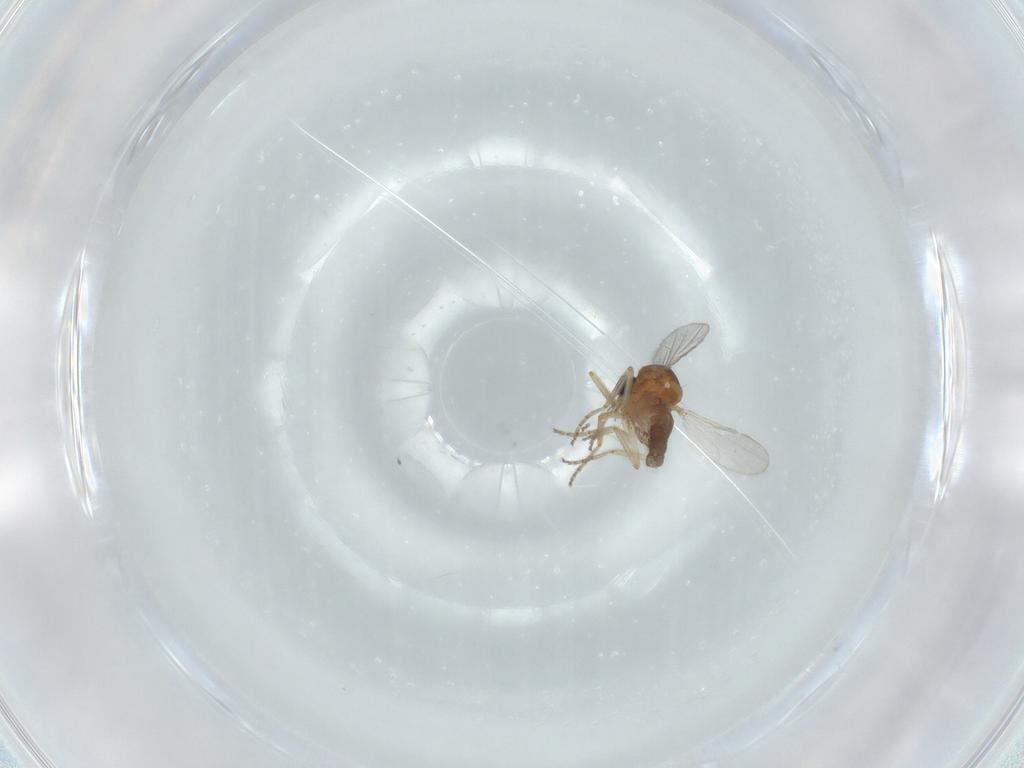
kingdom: Animalia
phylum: Arthropoda
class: Insecta
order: Diptera
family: Ceratopogonidae
